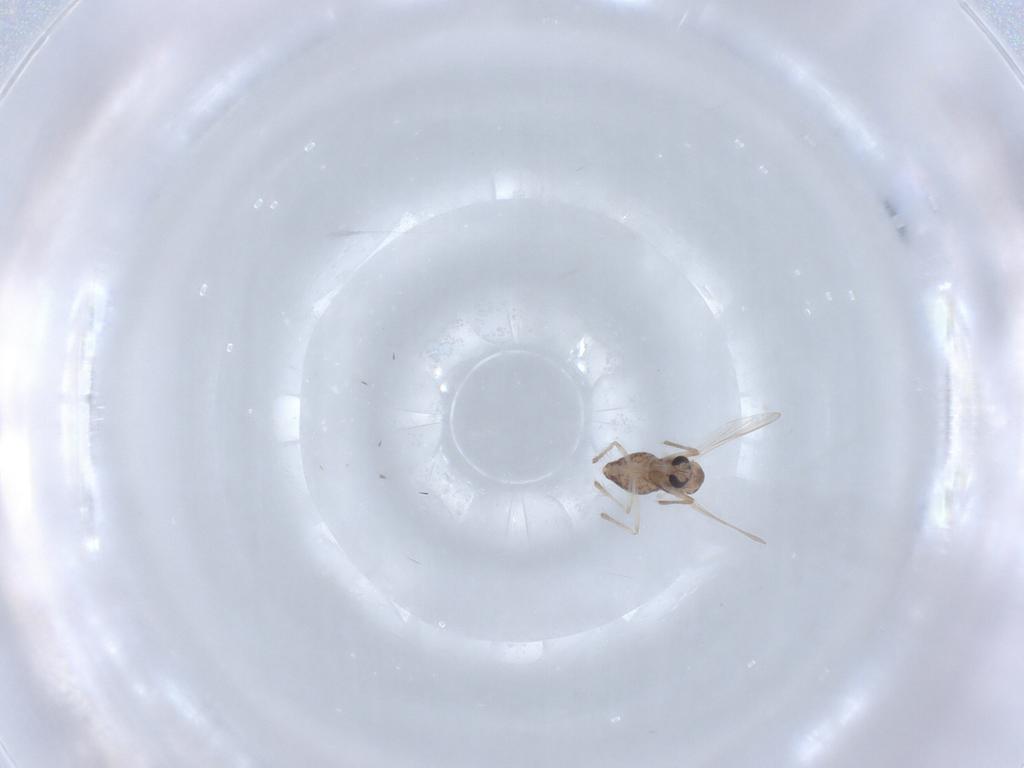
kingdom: Animalia
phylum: Arthropoda
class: Insecta
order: Diptera
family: Chironomidae
